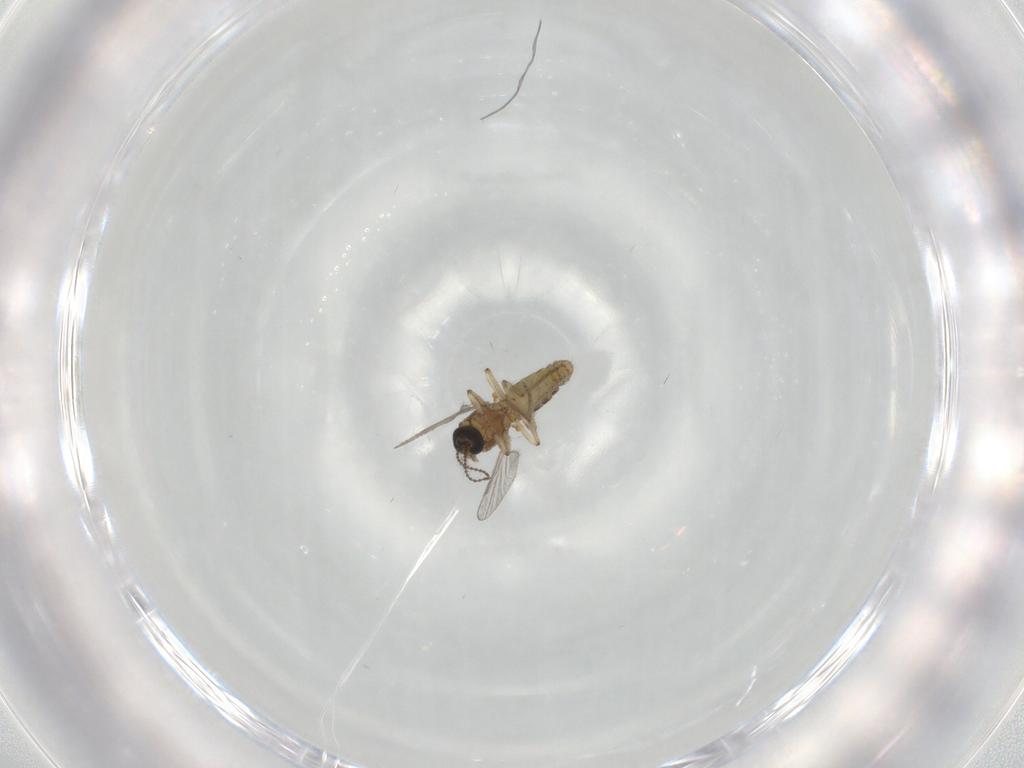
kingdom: Animalia
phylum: Arthropoda
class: Insecta
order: Diptera
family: Ceratopogonidae
